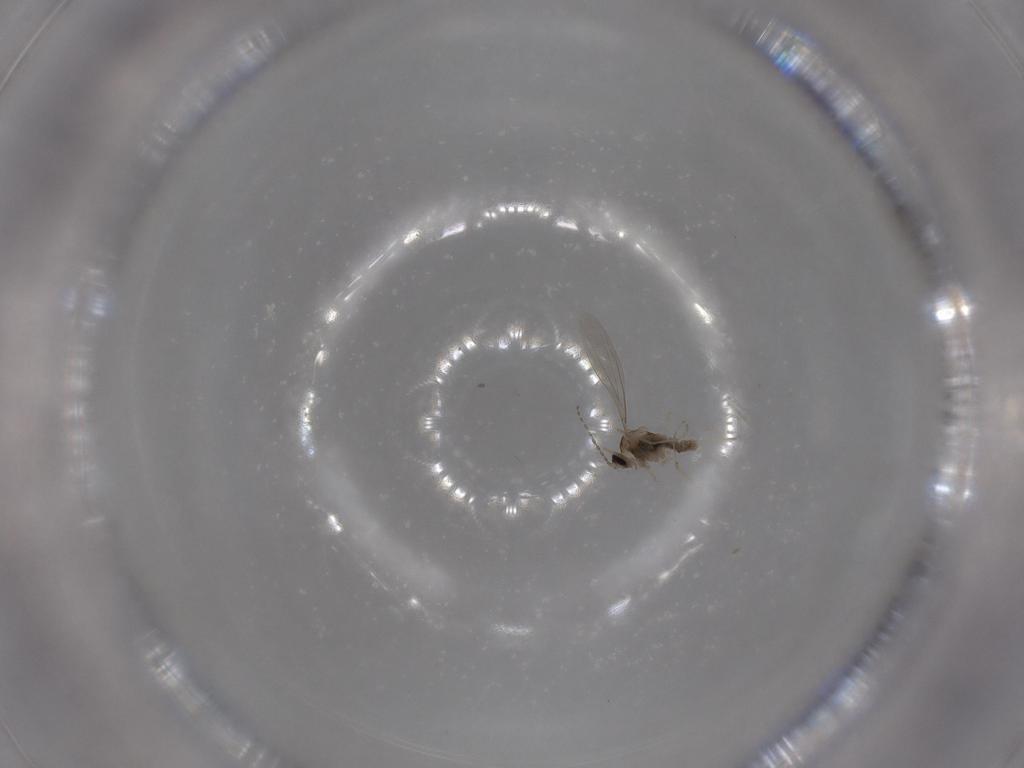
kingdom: Animalia
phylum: Arthropoda
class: Insecta
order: Diptera
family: Cecidomyiidae
